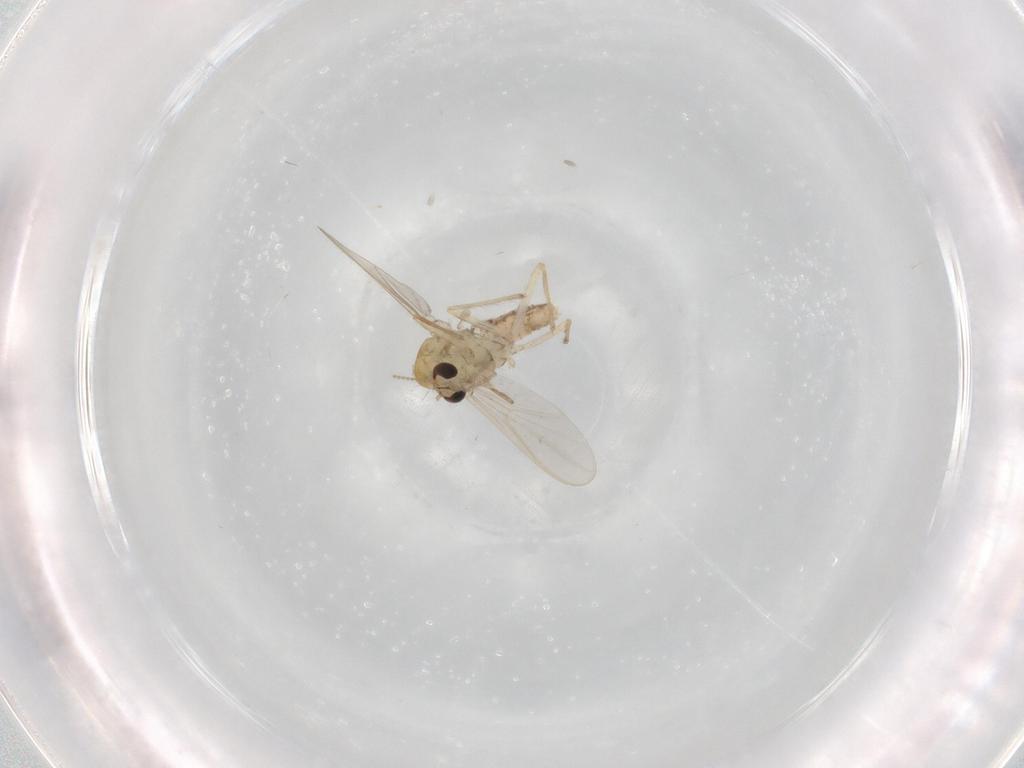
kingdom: Animalia
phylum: Arthropoda
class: Insecta
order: Diptera
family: Chironomidae
